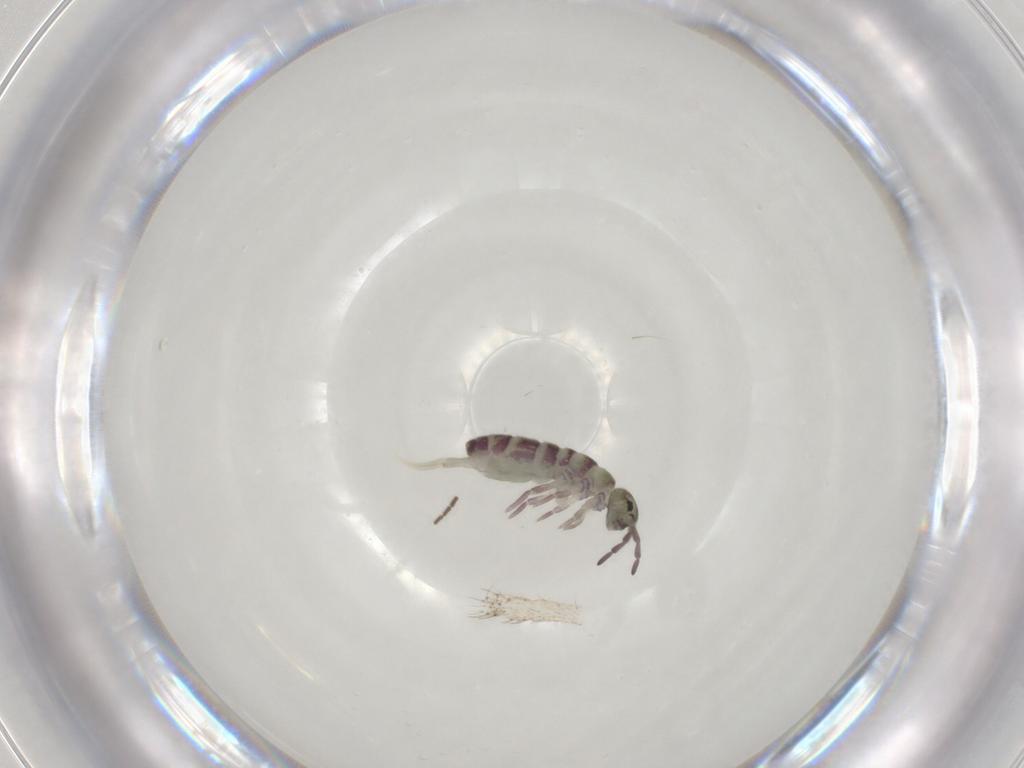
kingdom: Animalia
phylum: Arthropoda
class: Collembola
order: Entomobryomorpha
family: Isotomidae
